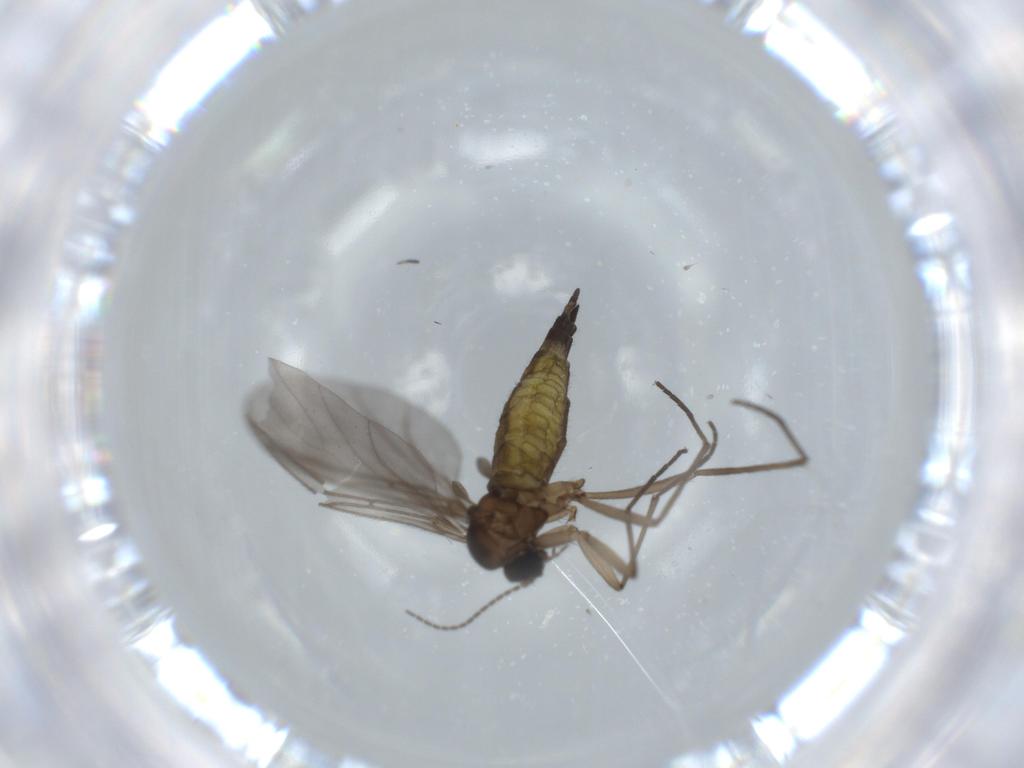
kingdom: Animalia
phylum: Arthropoda
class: Insecta
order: Diptera
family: Sciaridae
